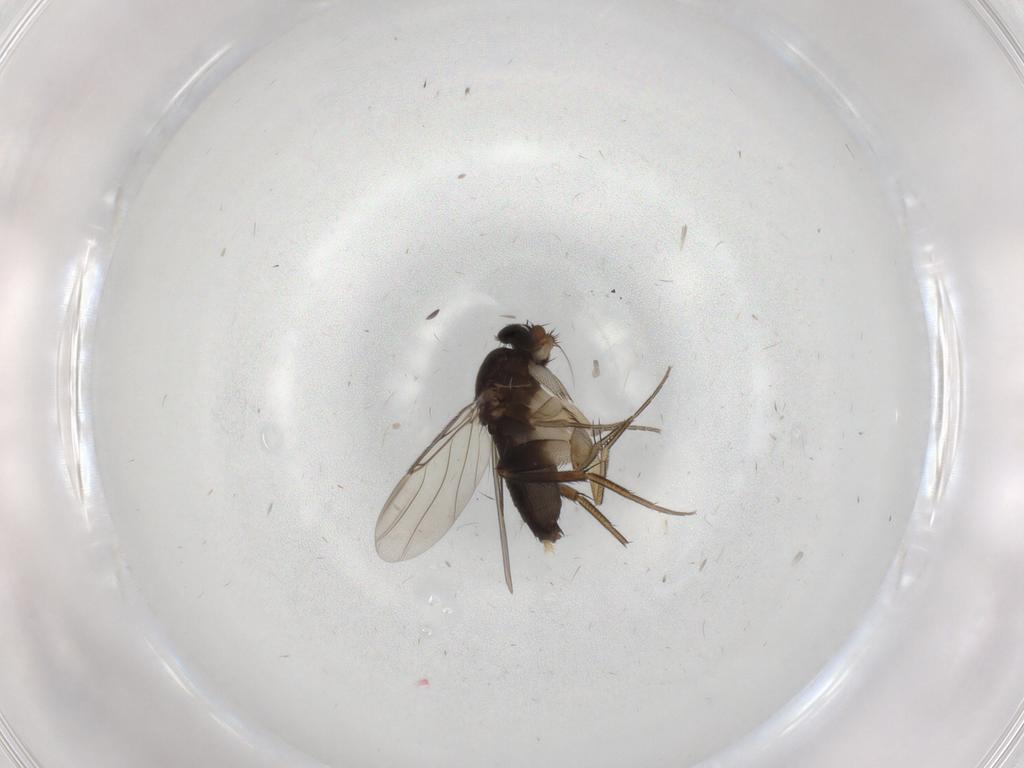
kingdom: Animalia
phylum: Arthropoda
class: Insecta
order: Diptera
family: Phoridae
